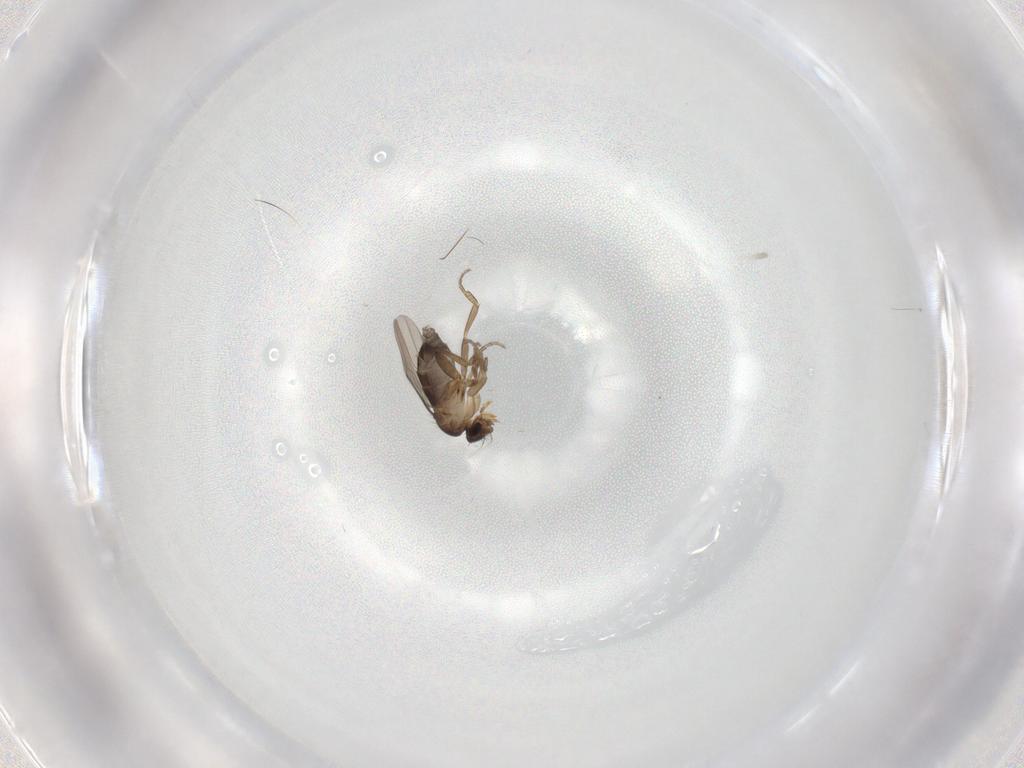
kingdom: Animalia
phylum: Arthropoda
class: Insecta
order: Diptera
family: Phoridae
